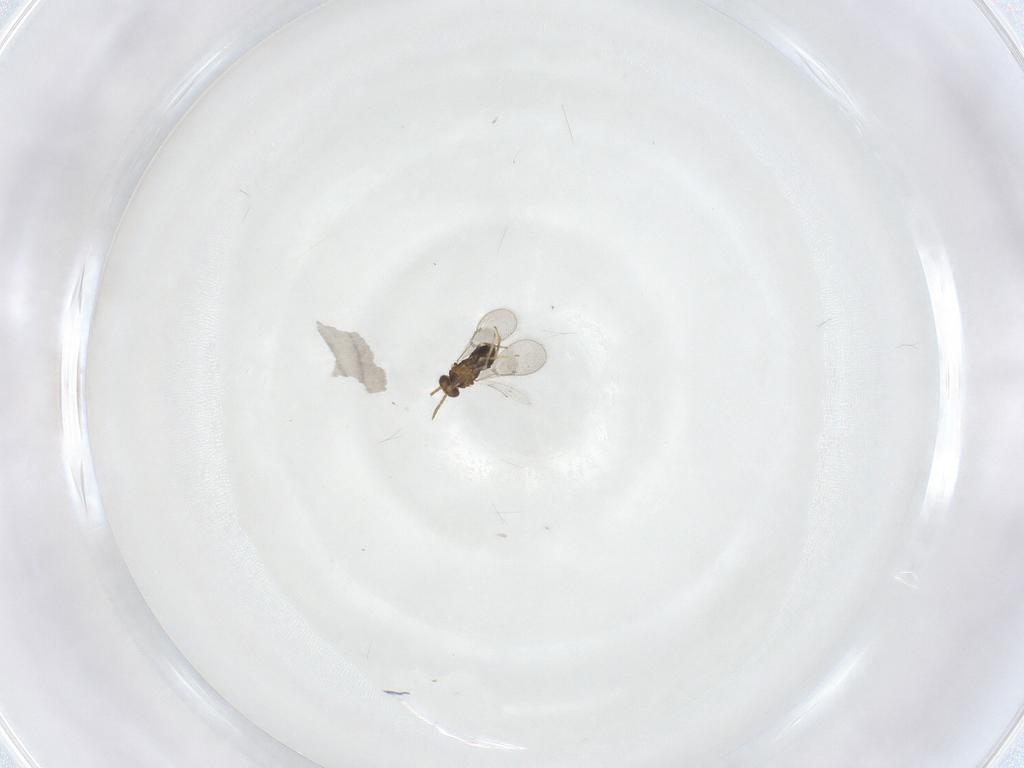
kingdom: Animalia
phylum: Arthropoda
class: Insecta
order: Hymenoptera
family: Aphelinidae
